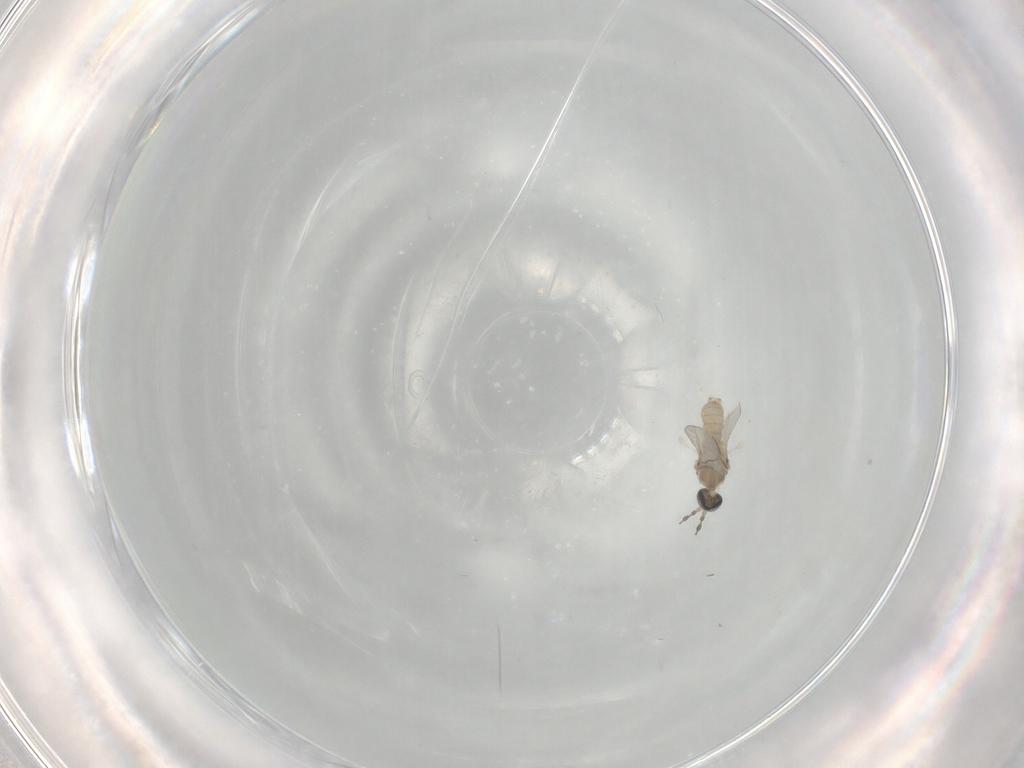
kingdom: Animalia
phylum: Arthropoda
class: Insecta
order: Diptera
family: Cecidomyiidae
